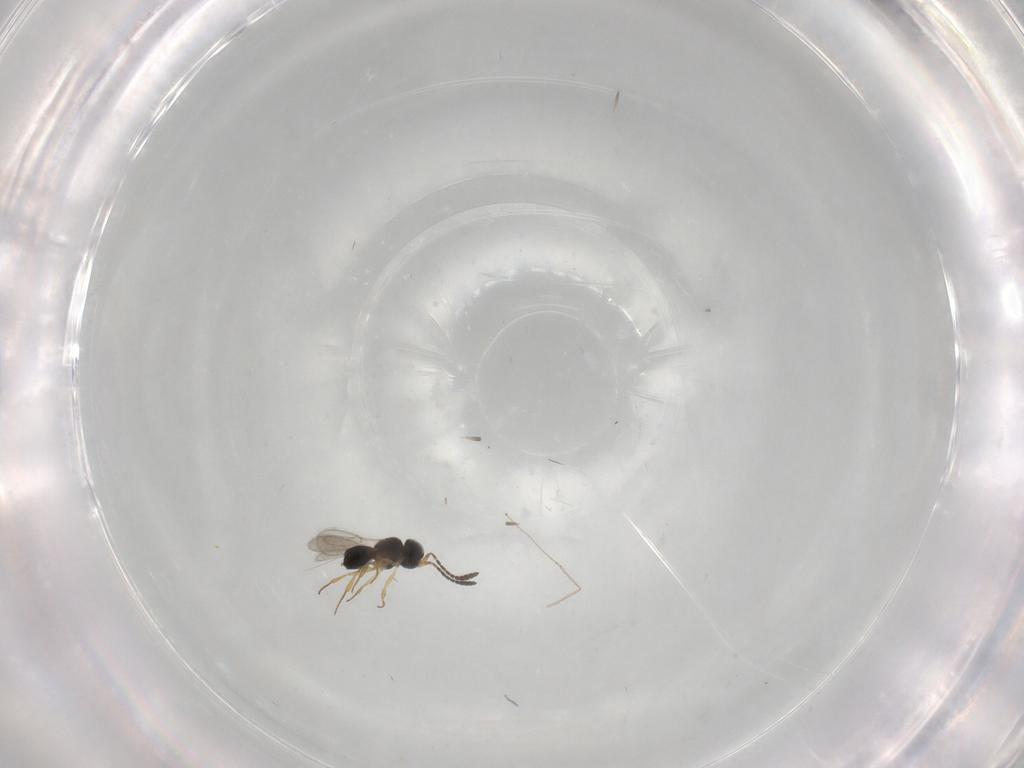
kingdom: Animalia
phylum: Arthropoda
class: Insecta
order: Hymenoptera
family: Scelionidae
